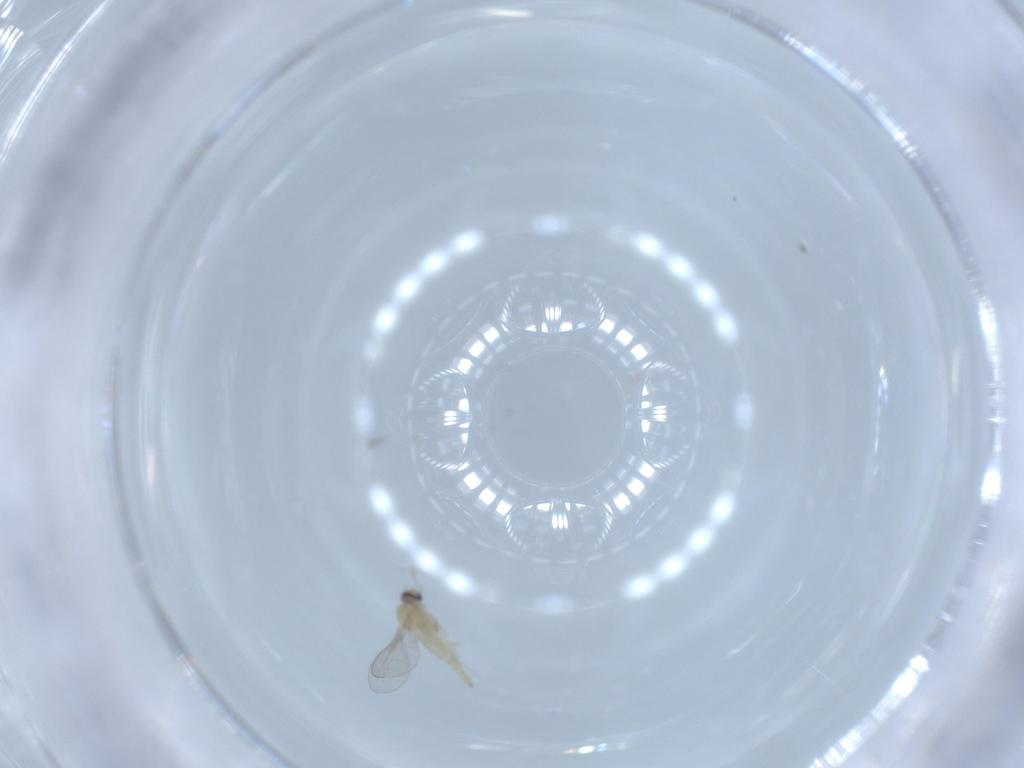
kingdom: Animalia
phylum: Arthropoda
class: Insecta
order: Diptera
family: Cecidomyiidae
